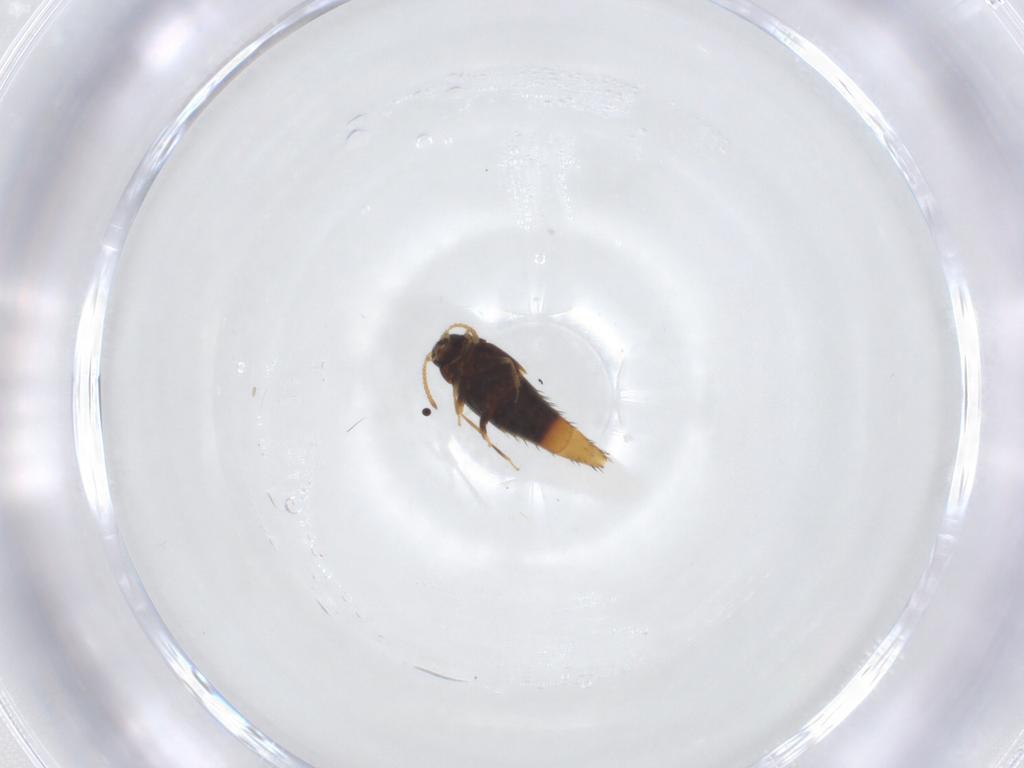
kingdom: Animalia
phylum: Arthropoda
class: Insecta
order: Coleoptera
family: Staphylinidae
